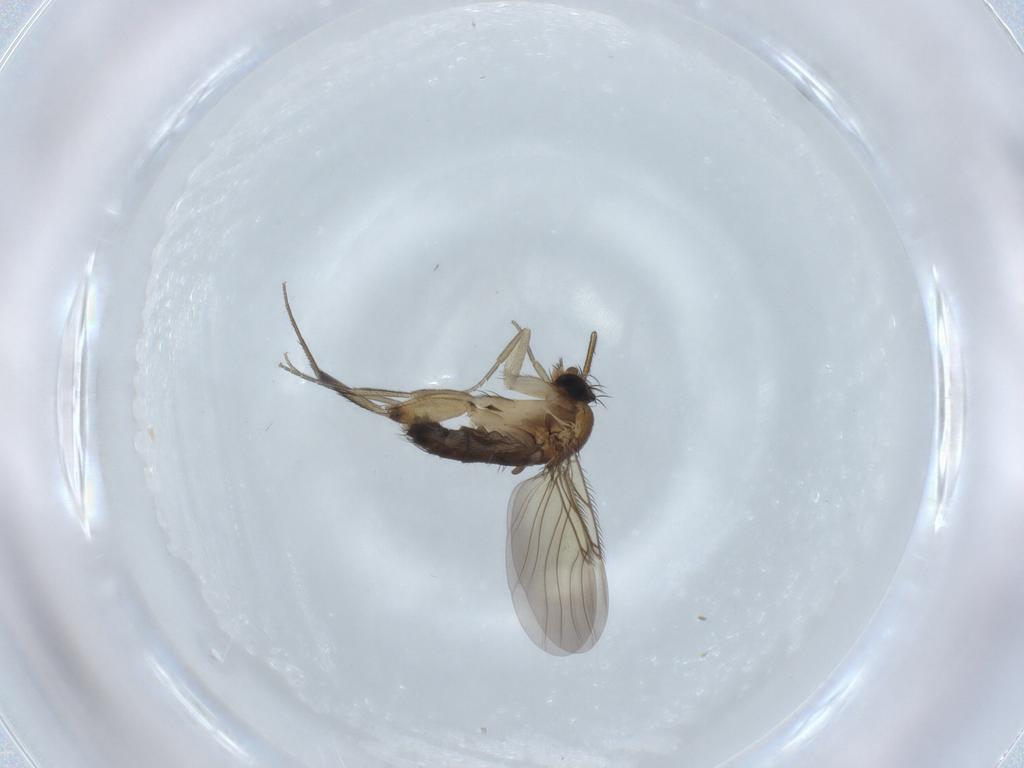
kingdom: Animalia
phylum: Arthropoda
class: Insecta
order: Diptera
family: Phoridae
